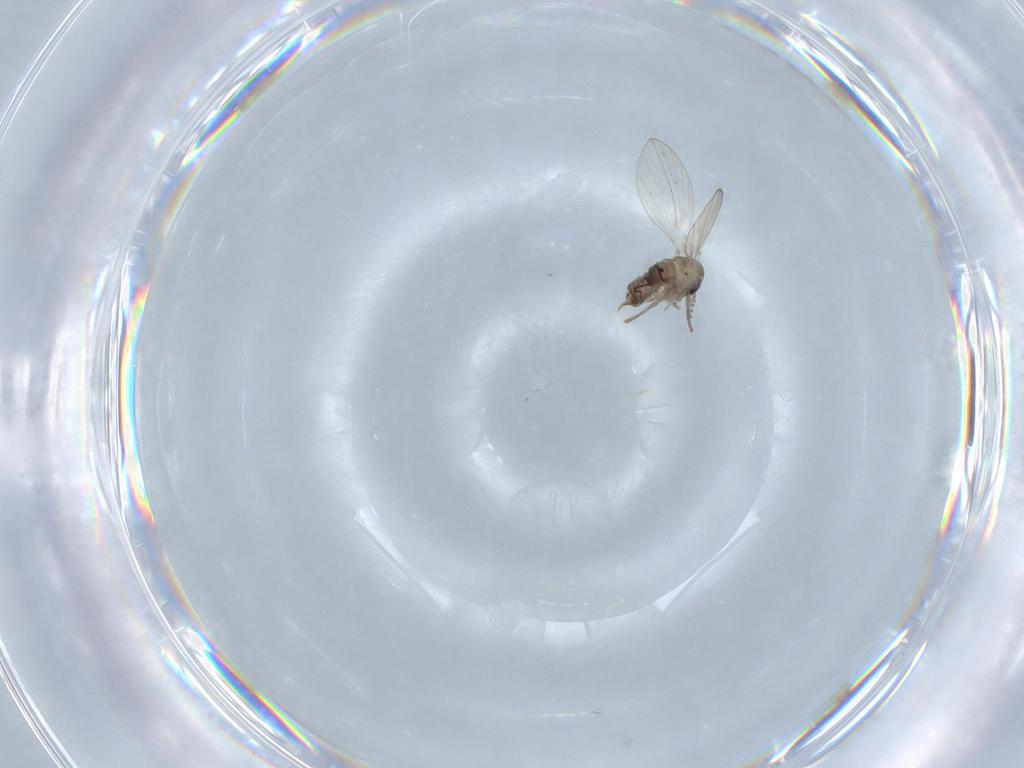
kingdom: Animalia
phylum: Arthropoda
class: Insecta
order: Diptera
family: Psychodidae
